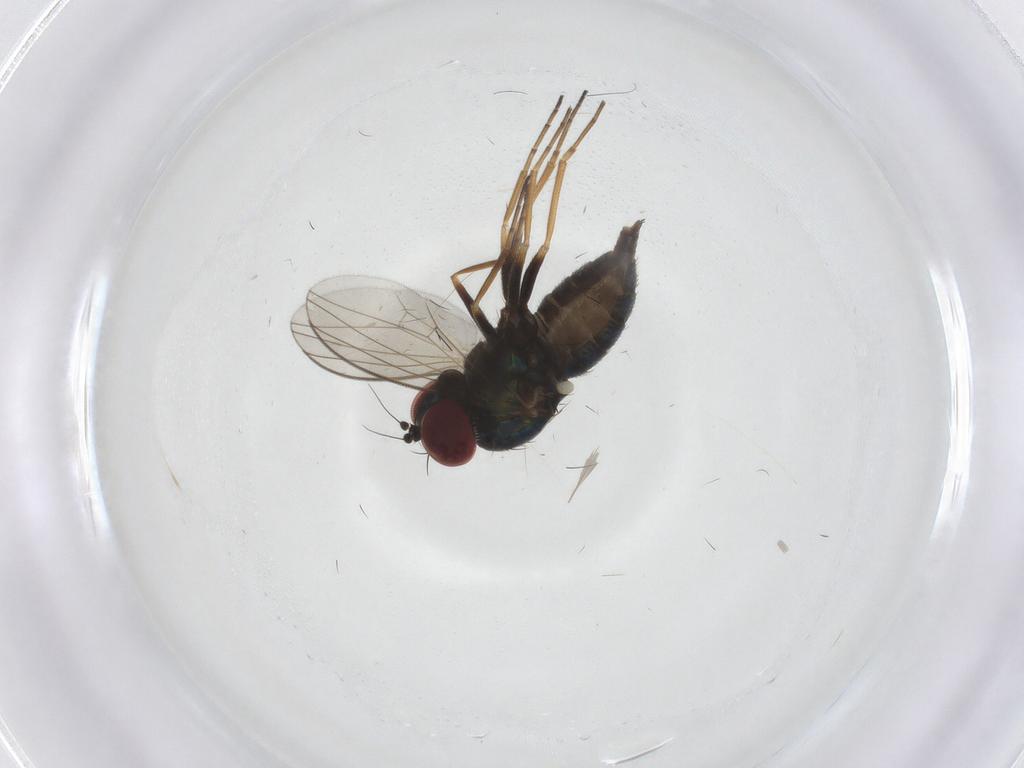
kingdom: Animalia
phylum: Arthropoda
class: Insecta
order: Diptera
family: Dolichopodidae
